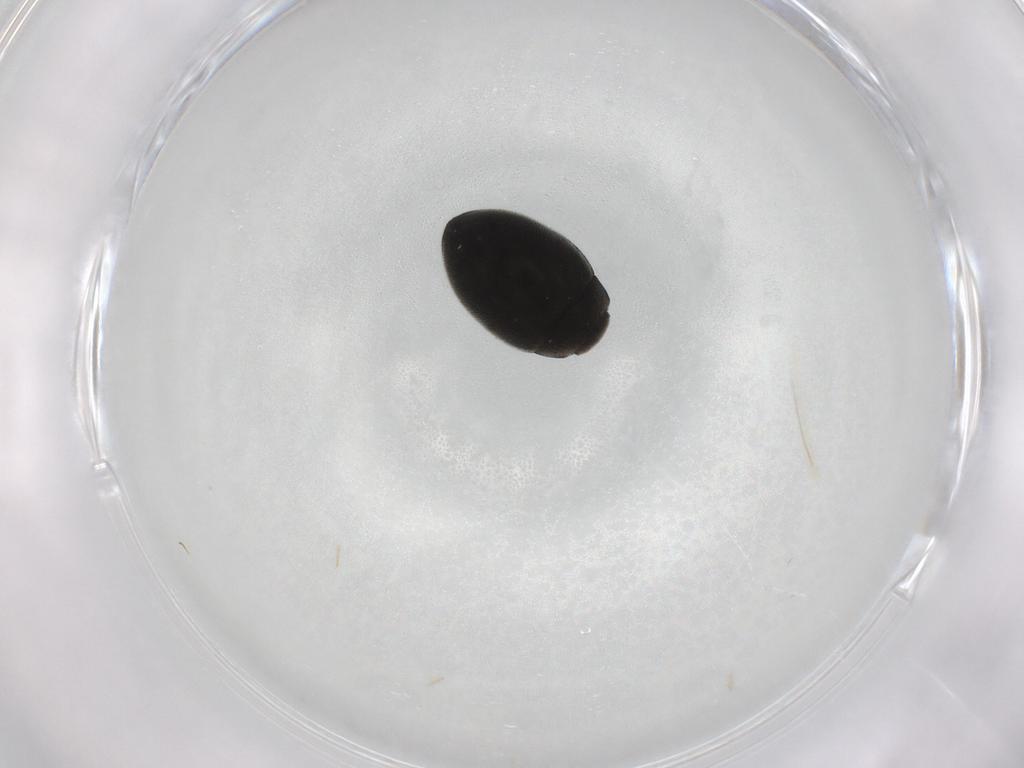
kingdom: Animalia
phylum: Arthropoda
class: Insecta
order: Coleoptera
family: Limnichidae
